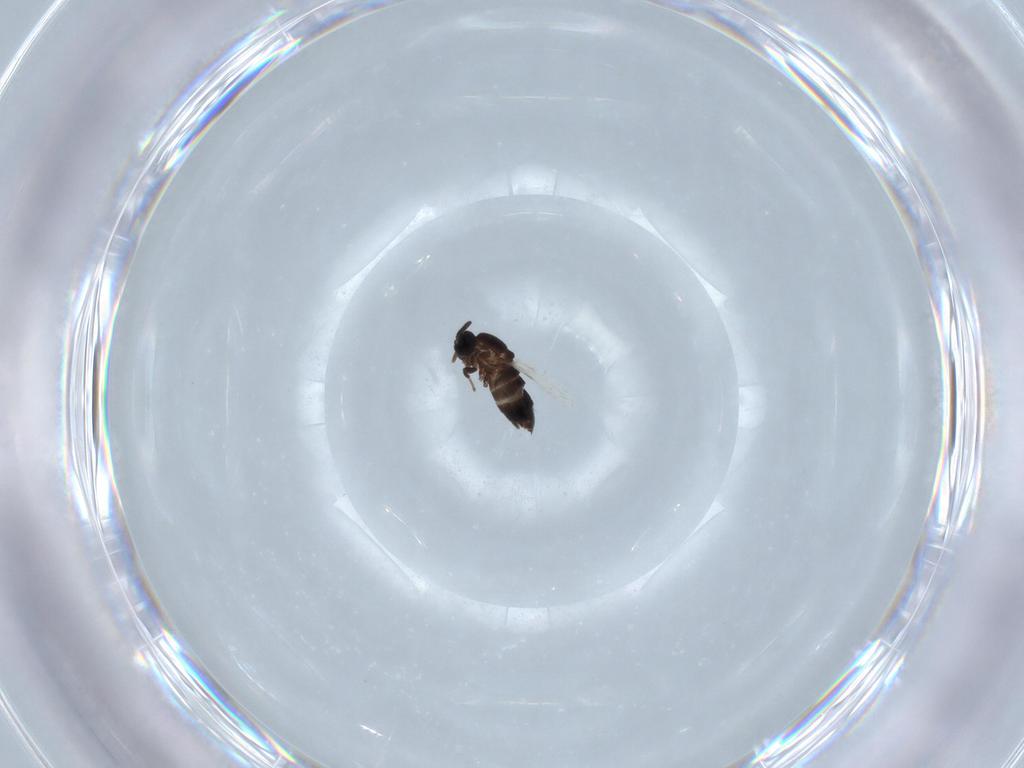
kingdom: Animalia
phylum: Arthropoda
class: Insecta
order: Diptera
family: Scatopsidae
